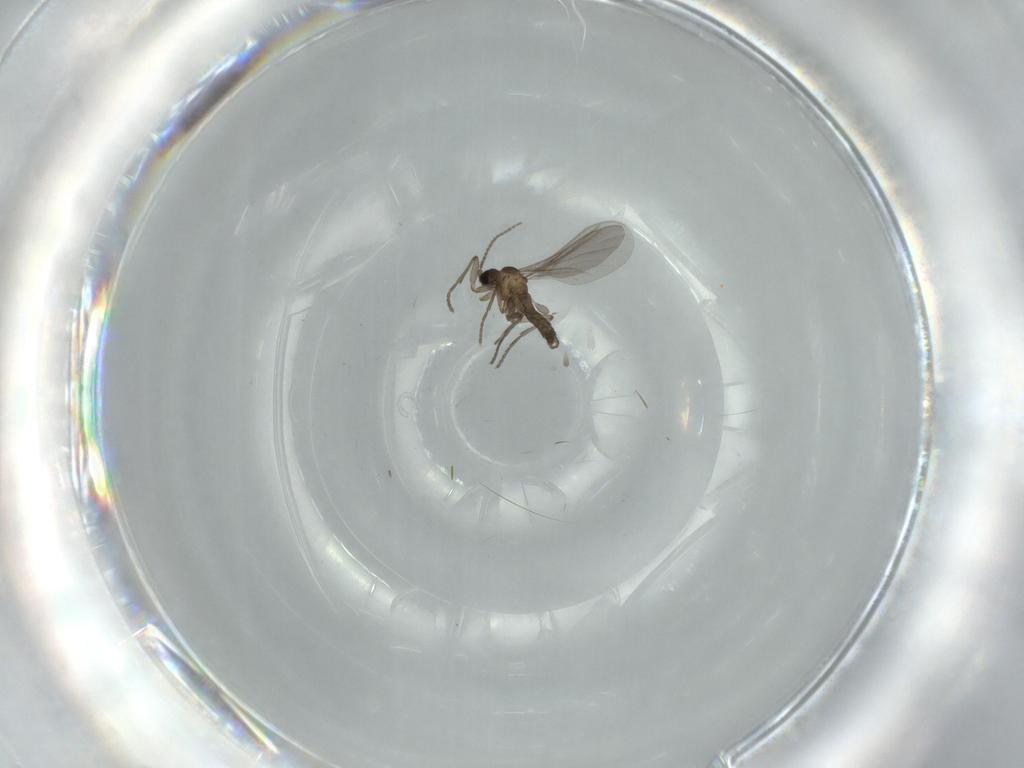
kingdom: Animalia
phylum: Arthropoda
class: Insecta
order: Diptera
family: Sciaridae
